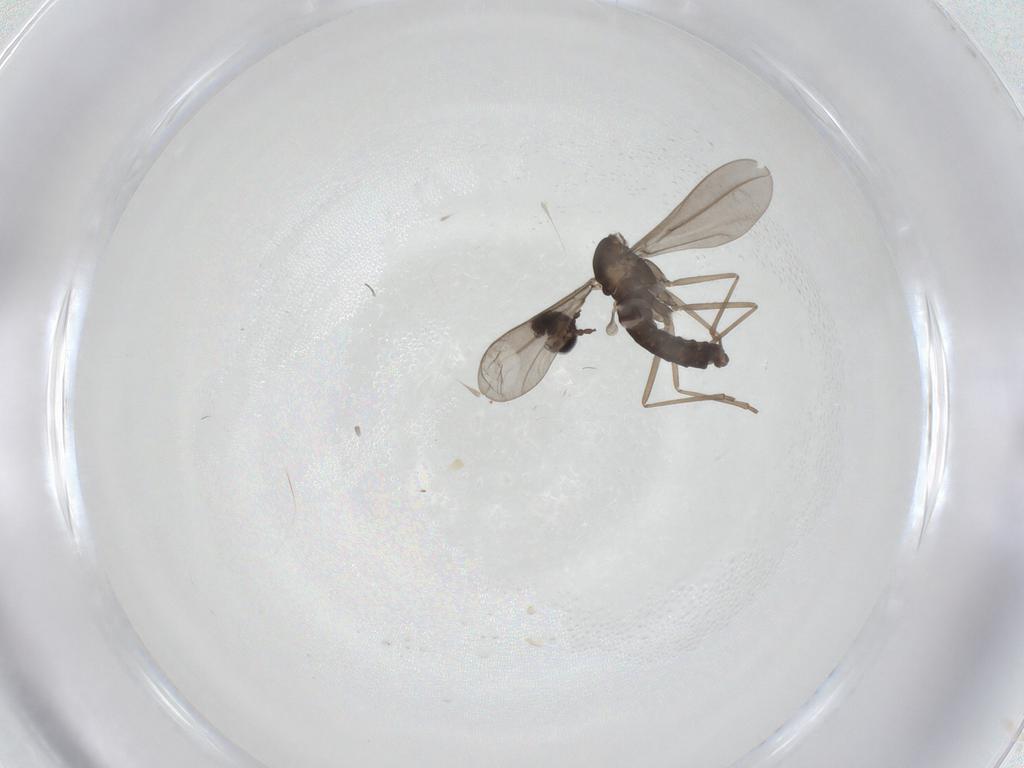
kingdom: Animalia
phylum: Arthropoda
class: Insecta
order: Diptera
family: Cecidomyiidae
